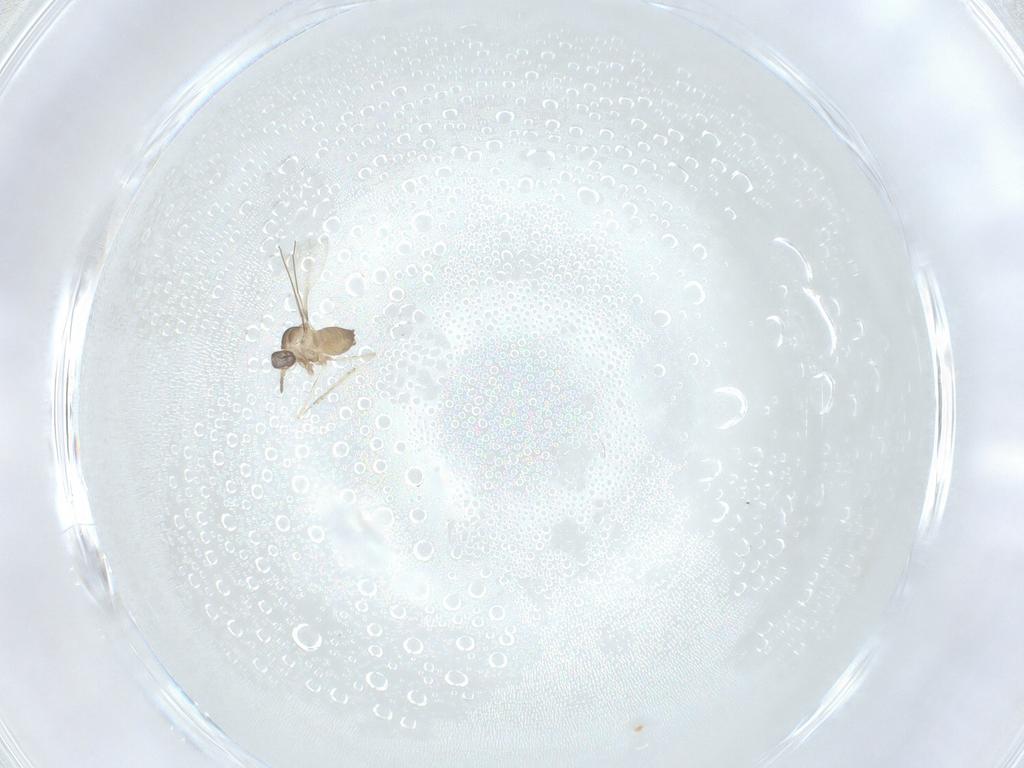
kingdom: Animalia
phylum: Arthropoda
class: Insecta
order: Diptera
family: Cecidomyiidae
